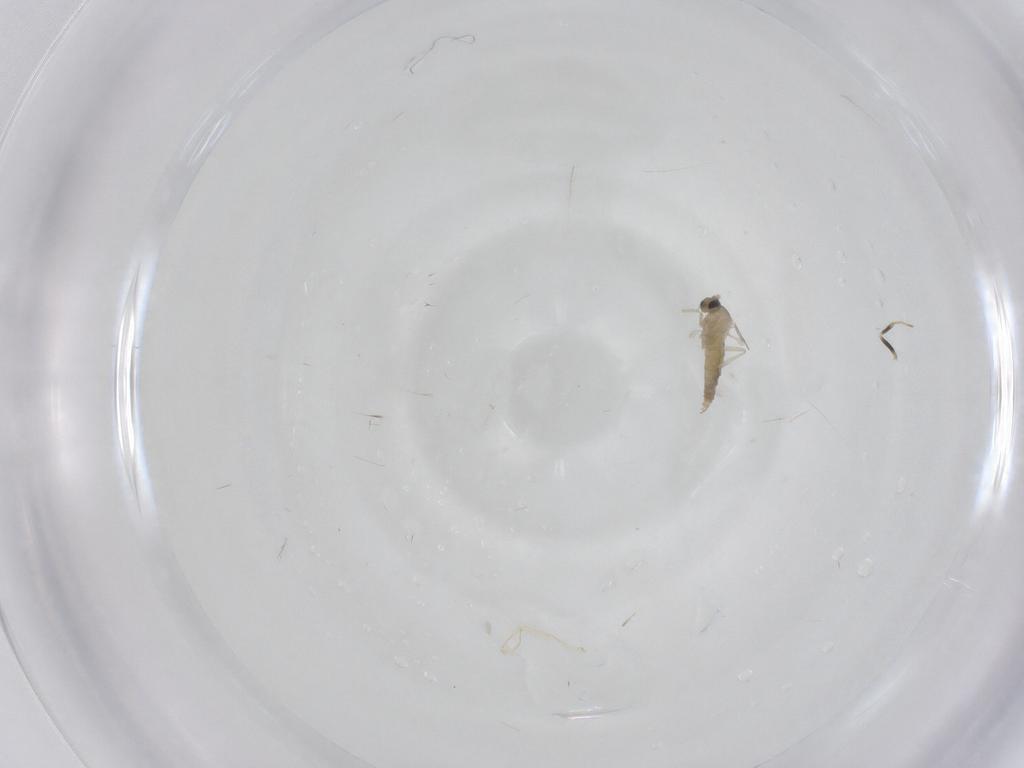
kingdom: Animalia
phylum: Arthropoda
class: Insecta
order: Diptera
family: Cecidomyiidae
